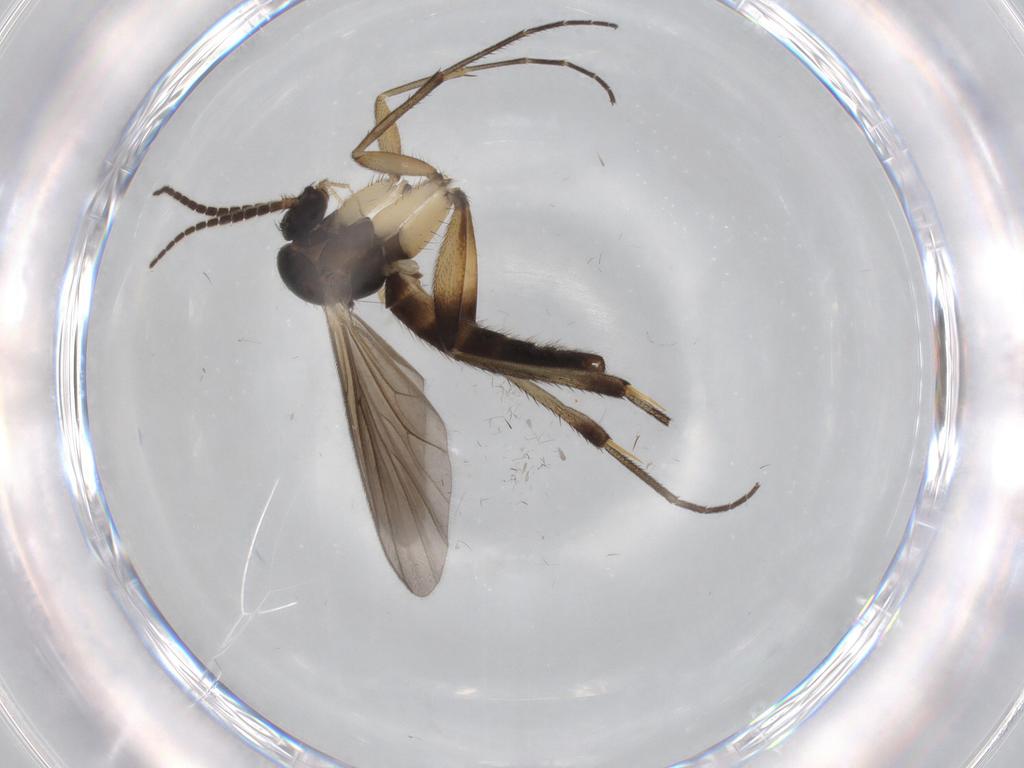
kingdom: Animalia
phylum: Arthropoda
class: Insecta
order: Diptera
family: Mycetophilidae
